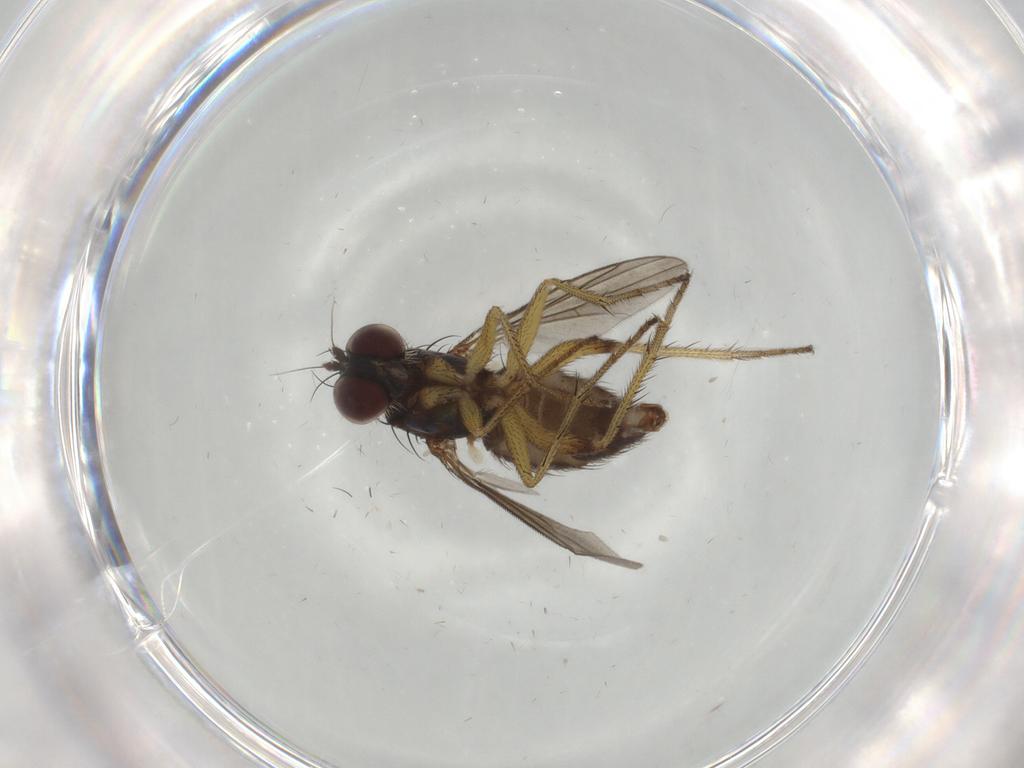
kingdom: Animalia
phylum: Arthropoda
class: Insecta
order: Diptera
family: Dolichopodidae
